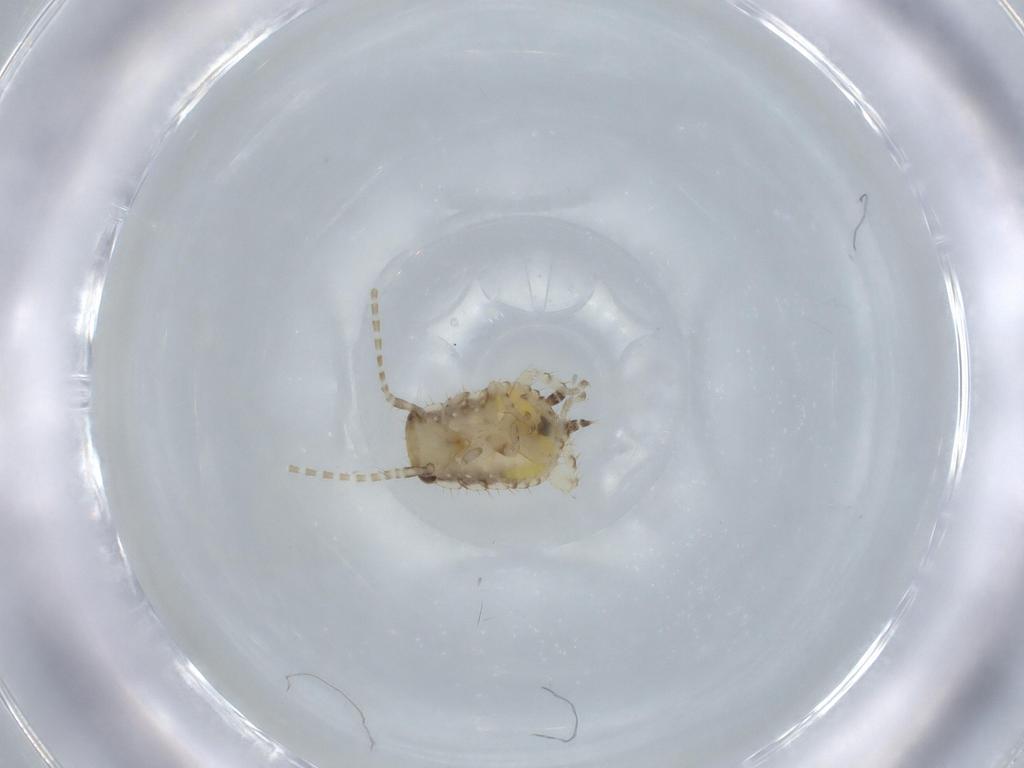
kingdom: Animalia
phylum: Arthropoda
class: Insecta
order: Blattodea
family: Ectobiidae
